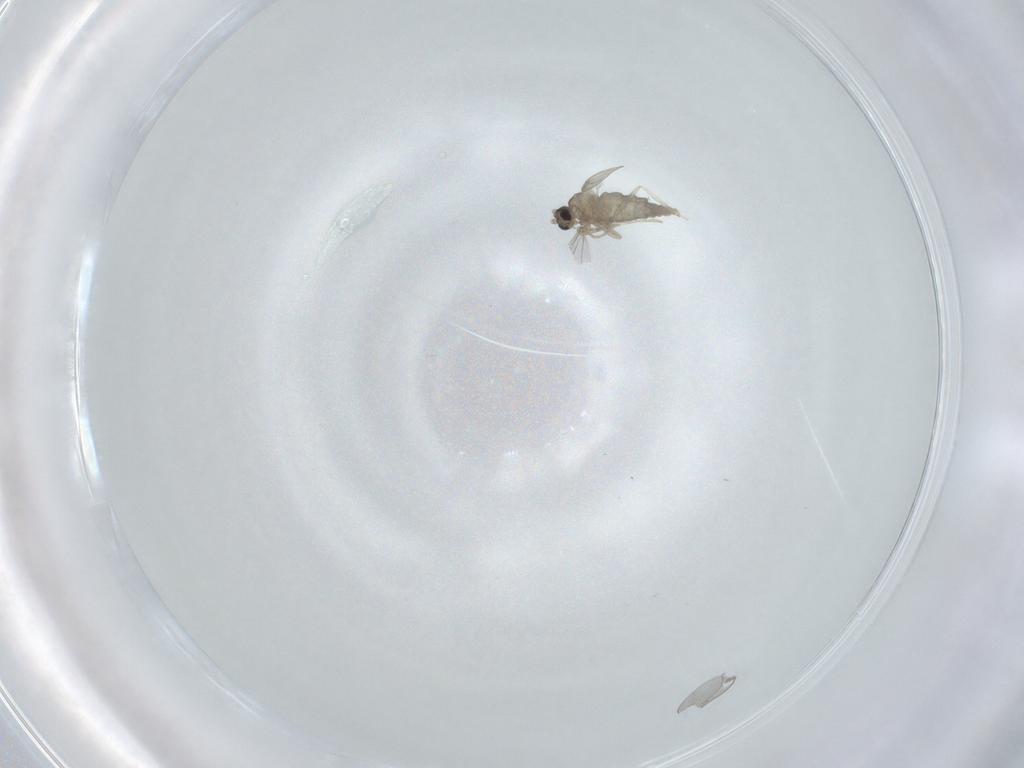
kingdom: Animalia
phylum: Arthropoda
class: Insecta
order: Diptera
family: Cecidomyiidae
